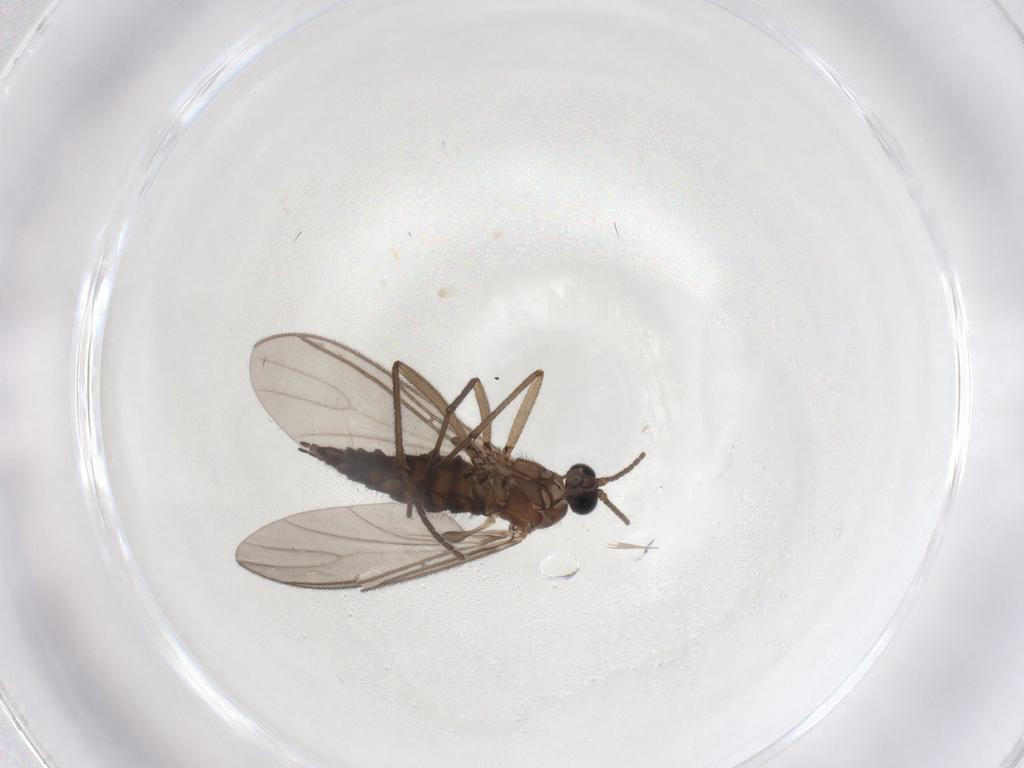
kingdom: Animalia
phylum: Arthropoda
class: Insecta
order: Diptera
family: Sciaridae
